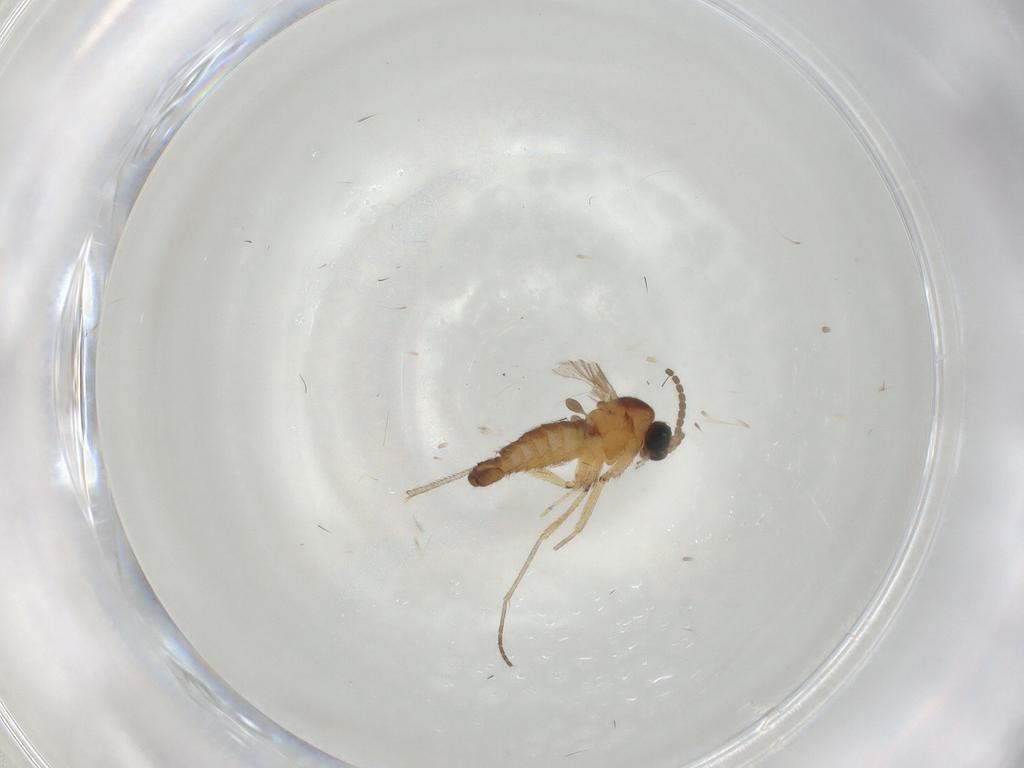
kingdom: Animalia
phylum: Arthropoda
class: Insecta
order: Diptera
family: Sciaridae
